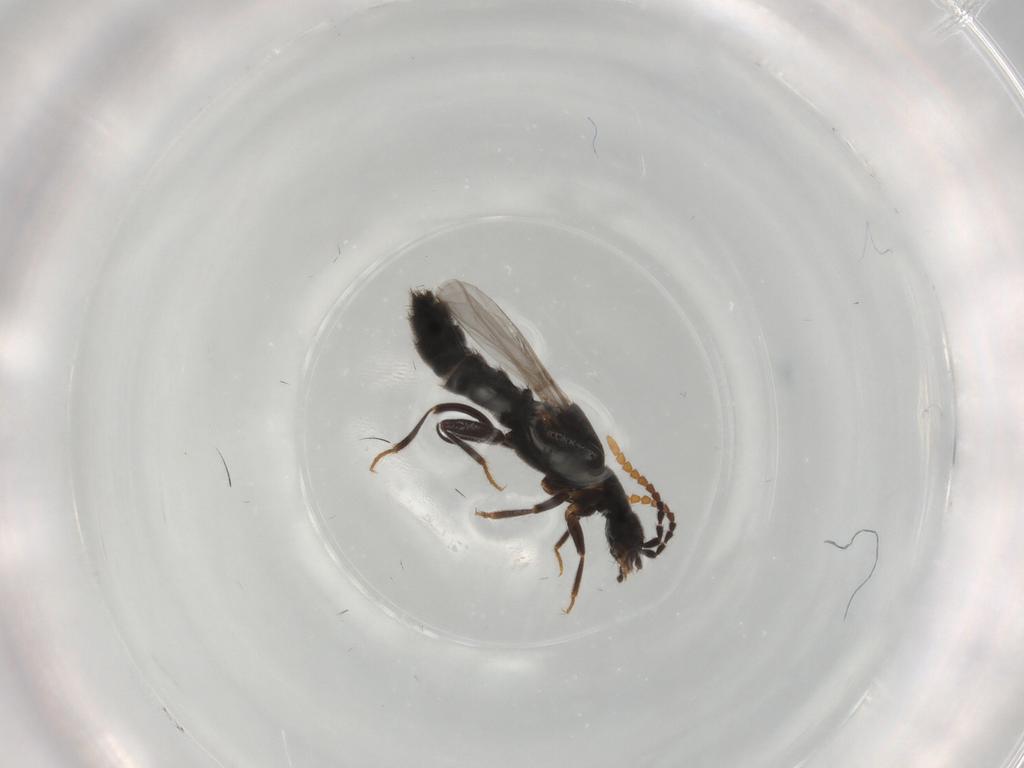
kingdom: Animalia
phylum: Arthropoda
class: Insecta
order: Coleoptera
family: Staphylinidae
